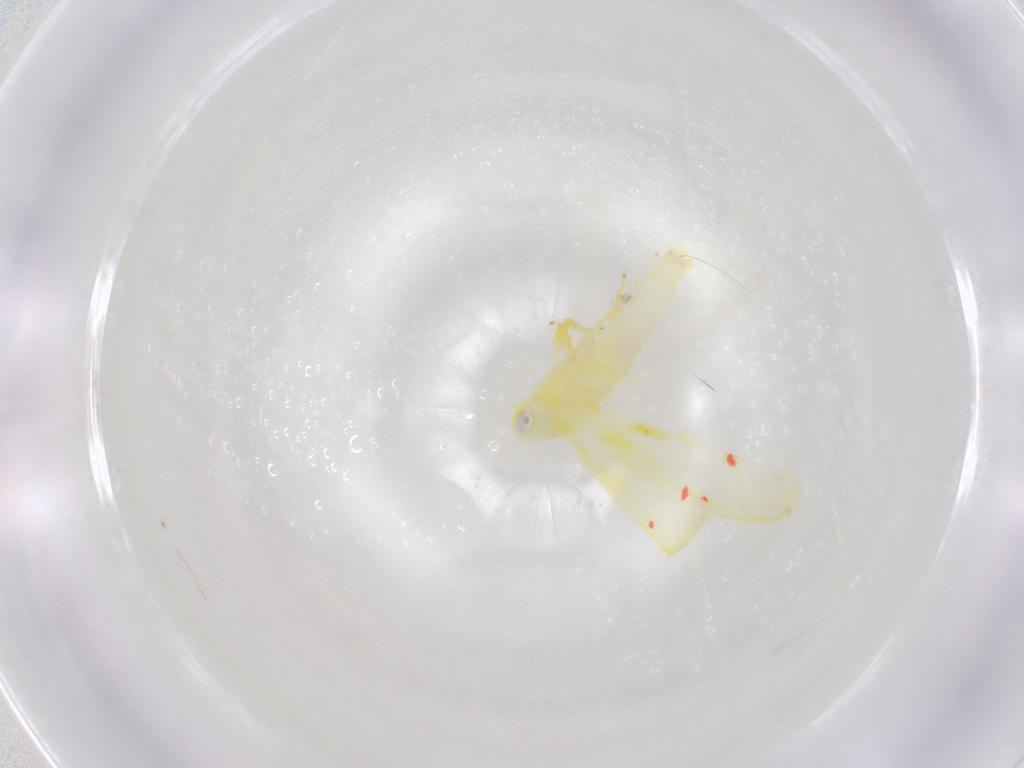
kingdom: Animalia
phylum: Arthropoda
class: Insecta
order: Hemiptera
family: Cicadellidae
